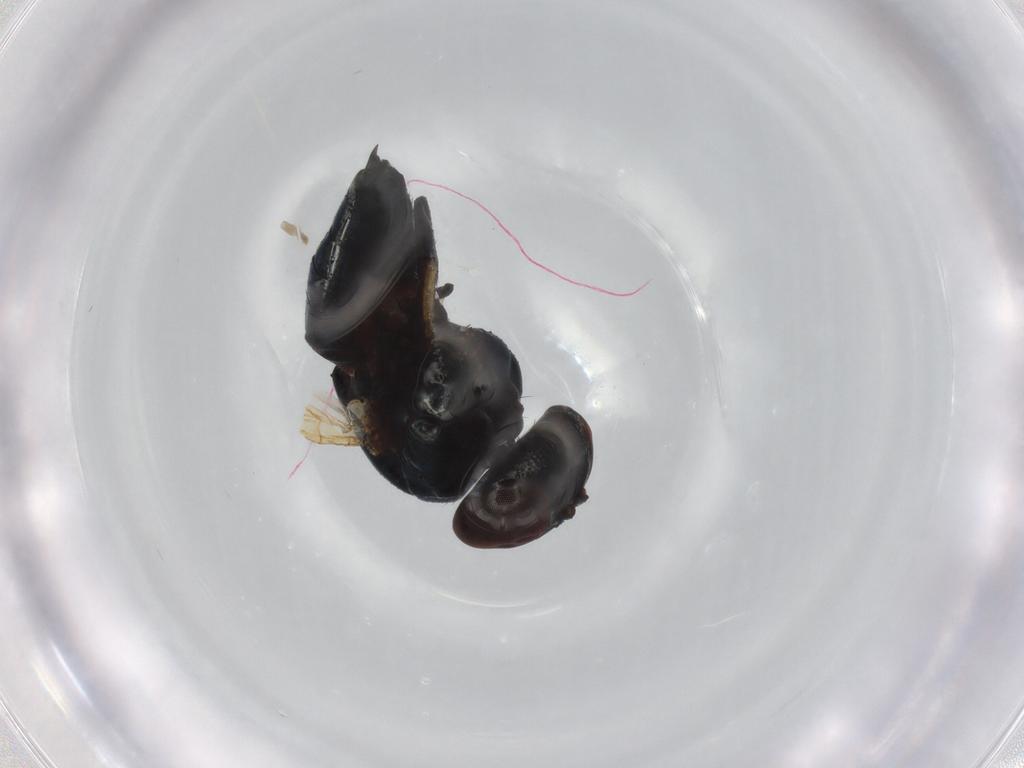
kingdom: Animalia
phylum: Arthropoda
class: Insecta
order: Diptera
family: Lonchaeidae
